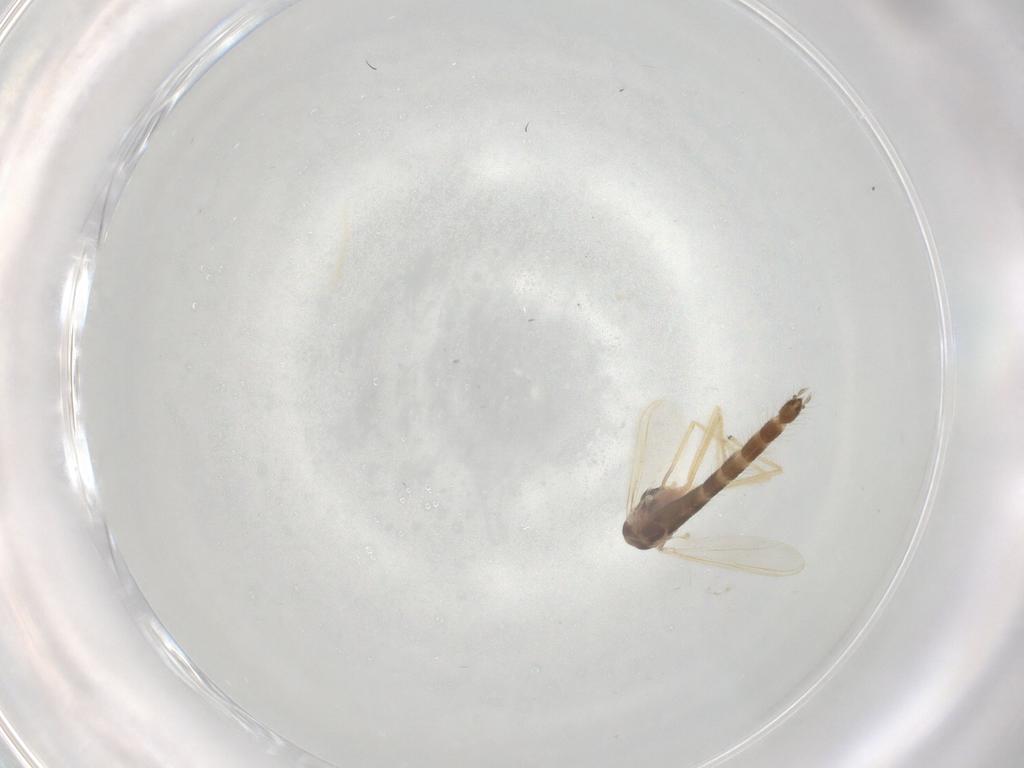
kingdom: Animalia
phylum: Arthropoda
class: Insecta
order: Diptera
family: Chironomidae
